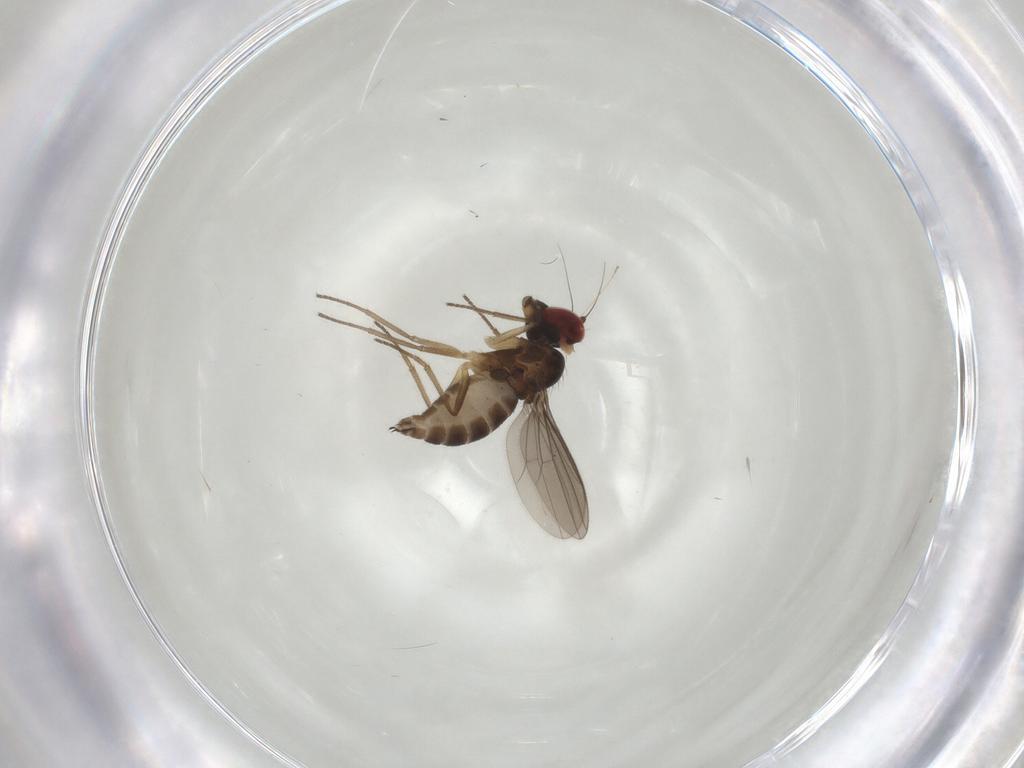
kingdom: Animalia
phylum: Arthropoda
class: Insecta
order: Diptera
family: Dolichopodidae
